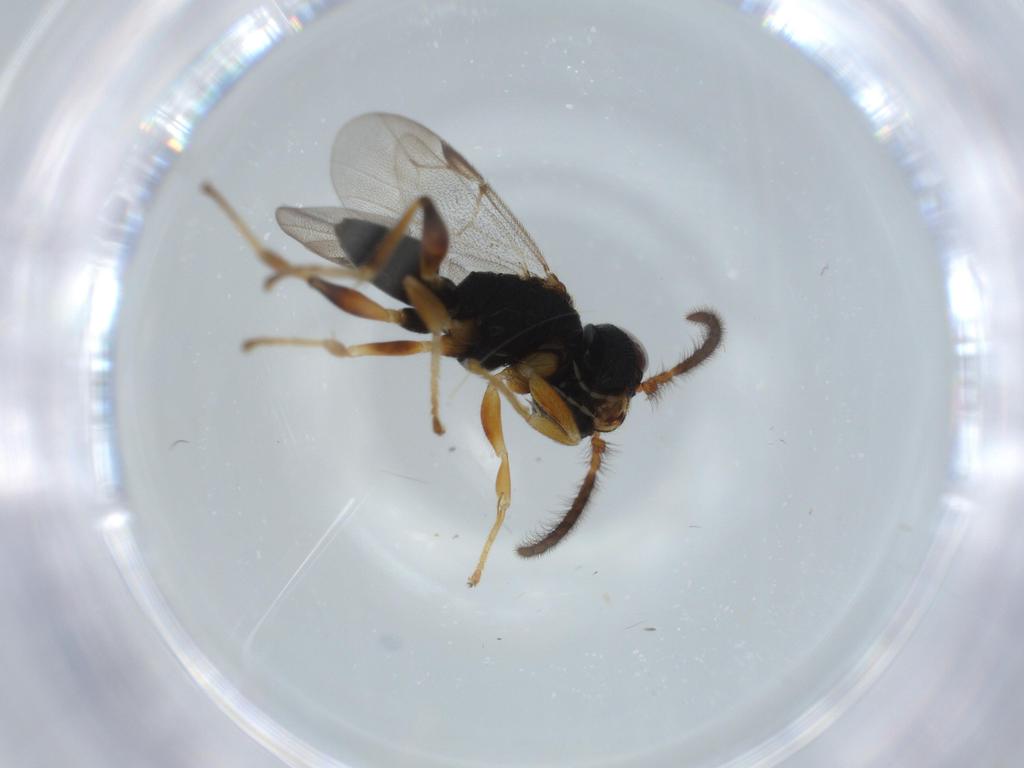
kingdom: Animalia
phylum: Arthropoda
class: Insecta
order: Hymenoptera
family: Dryinidae
